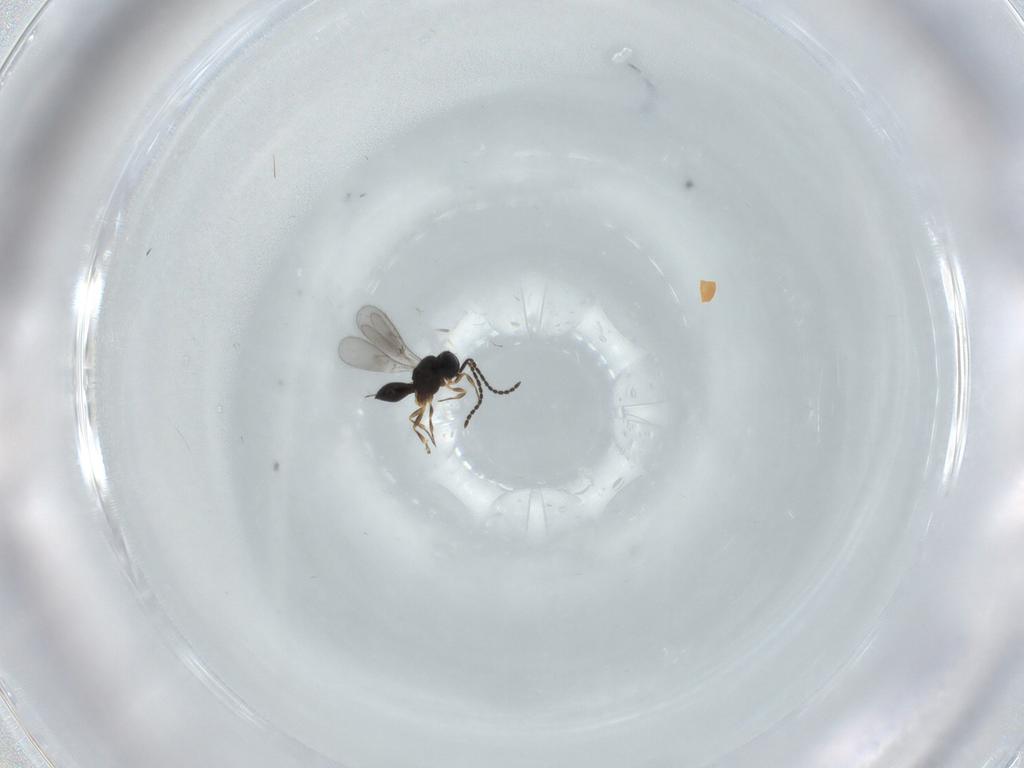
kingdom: Animalia
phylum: Arthropoda
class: Insecta
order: Hymenoptera
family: Scelionidae
